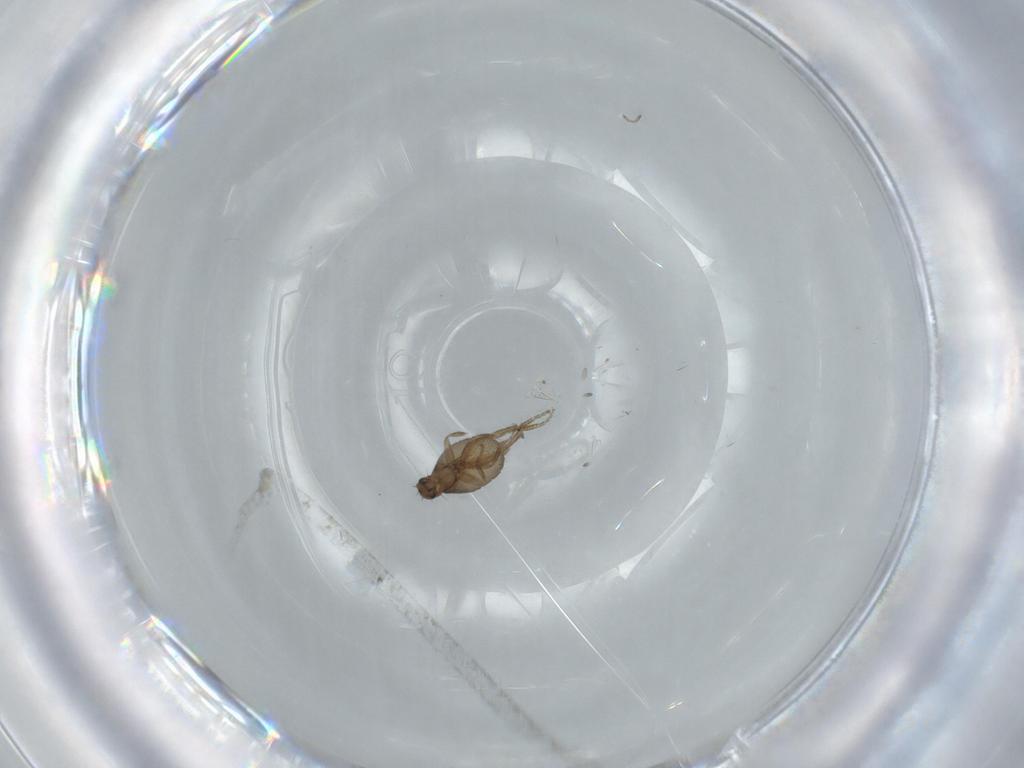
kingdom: Animalia
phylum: Arthropoda
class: Insecta
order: Diptera
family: Phoridae
